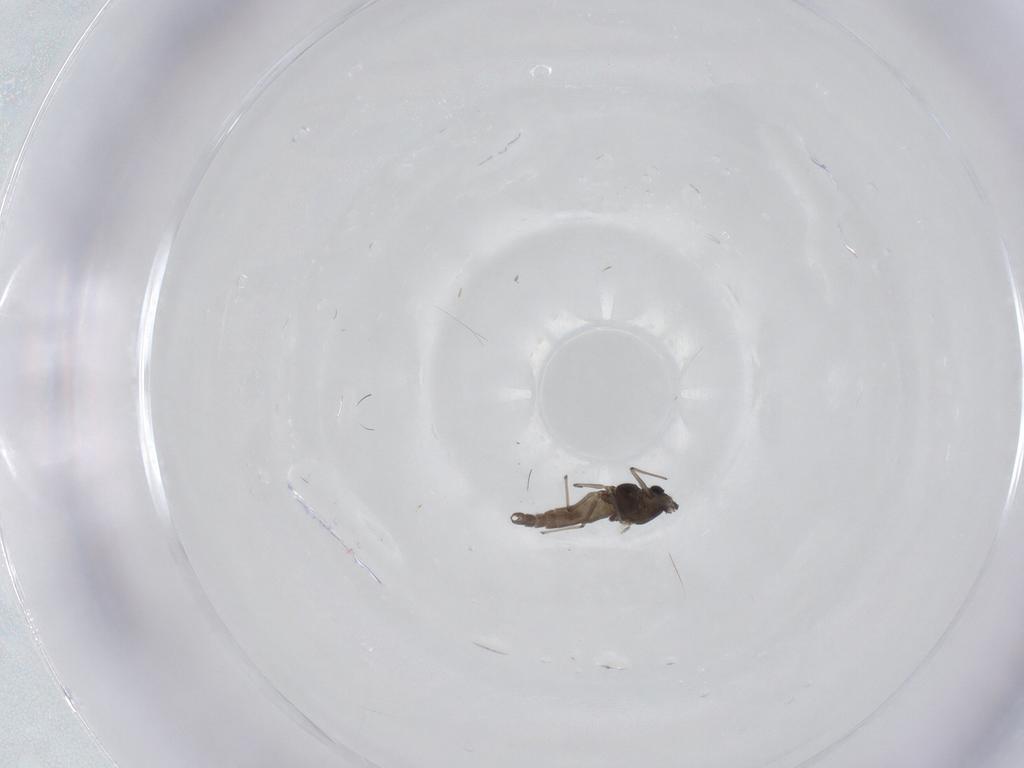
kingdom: Animalia
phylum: Arthropoda
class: Insecta
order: Diptera
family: Chironomidae
